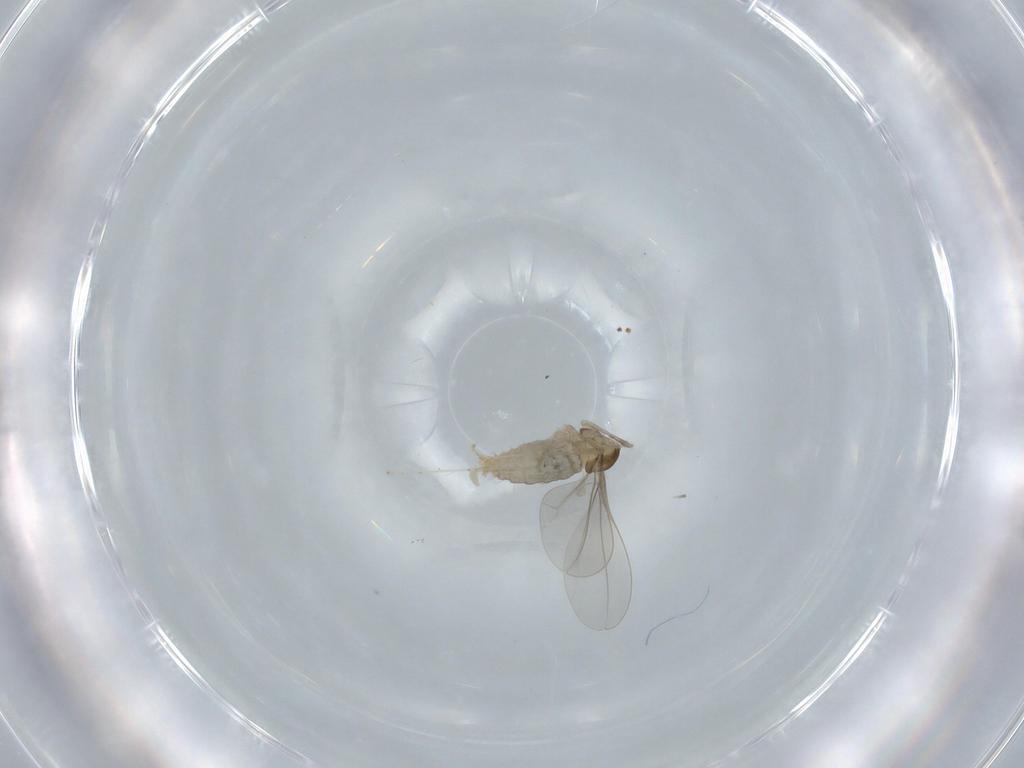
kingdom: Animalia
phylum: Arthropoda
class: Insecta
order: Diptera
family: Cecidomyiidae
